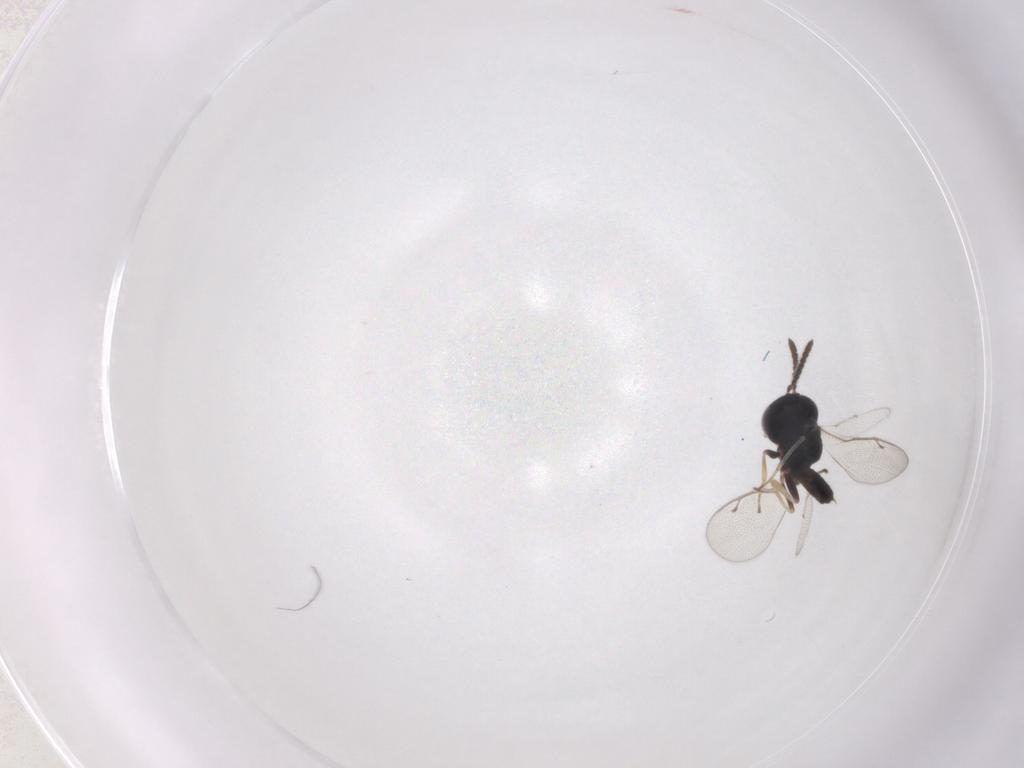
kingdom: Animalia
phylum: Arthropoda
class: Insecta
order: Hymenoptera
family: Pteromalidae
